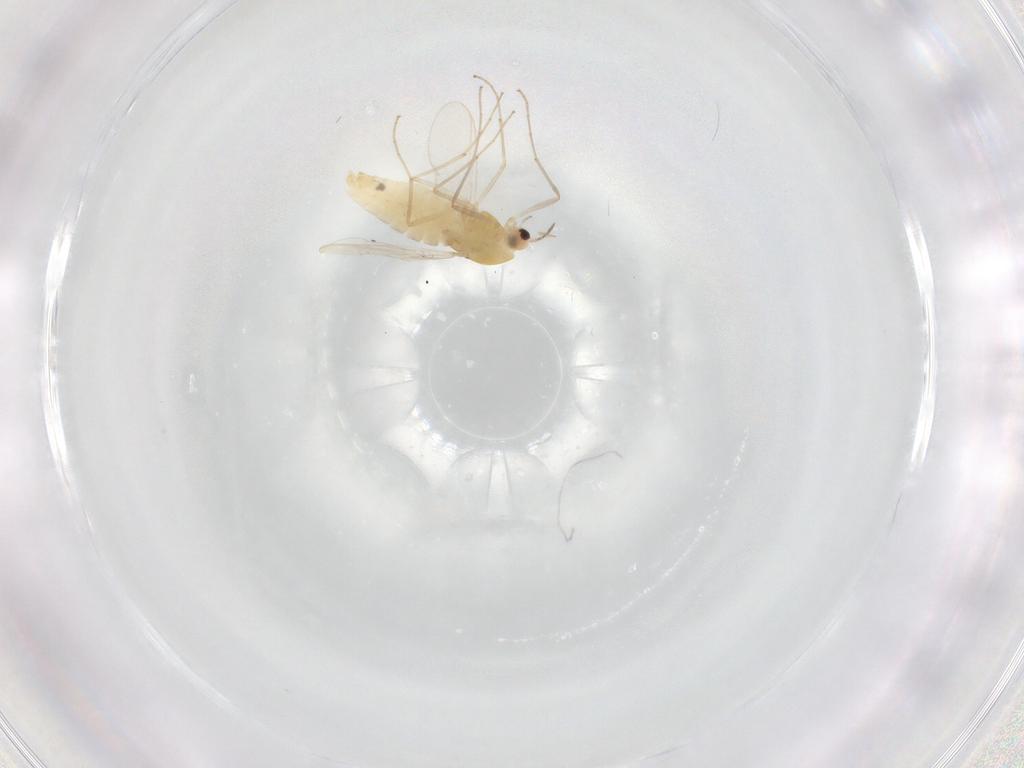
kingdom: Animalia
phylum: Arthropoda
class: Insecta
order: Diptera
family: Chironomidae
